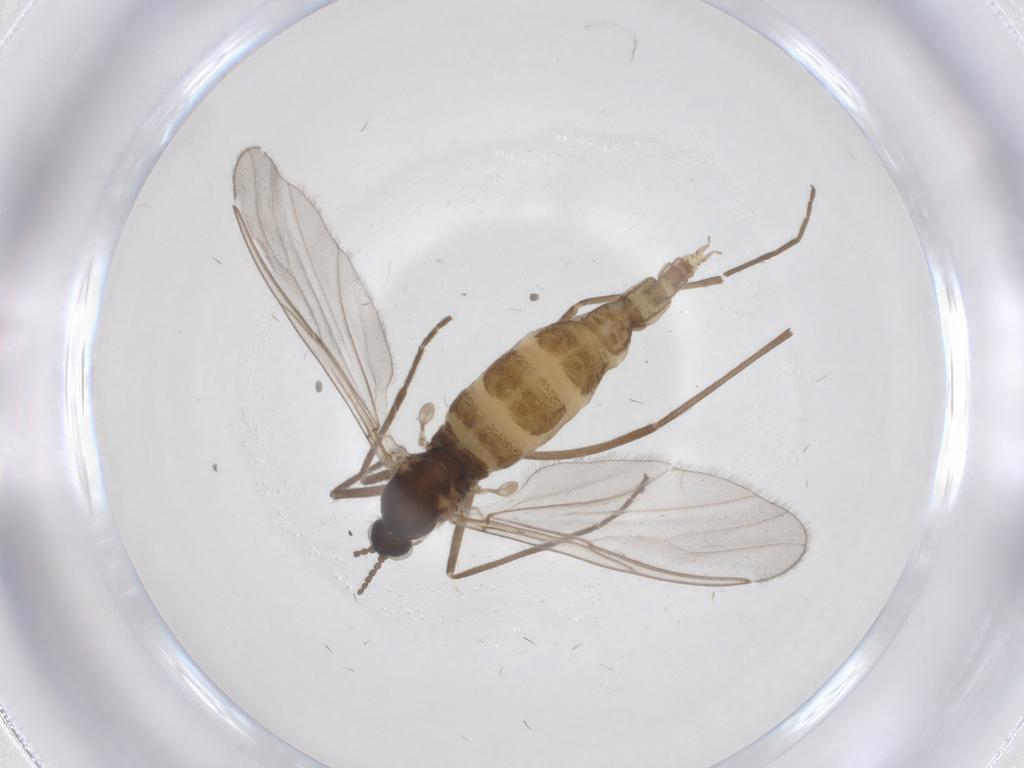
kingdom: Animalia
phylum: Arthropoda
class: Insecta
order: Diptera
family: Cecidomyiidae
